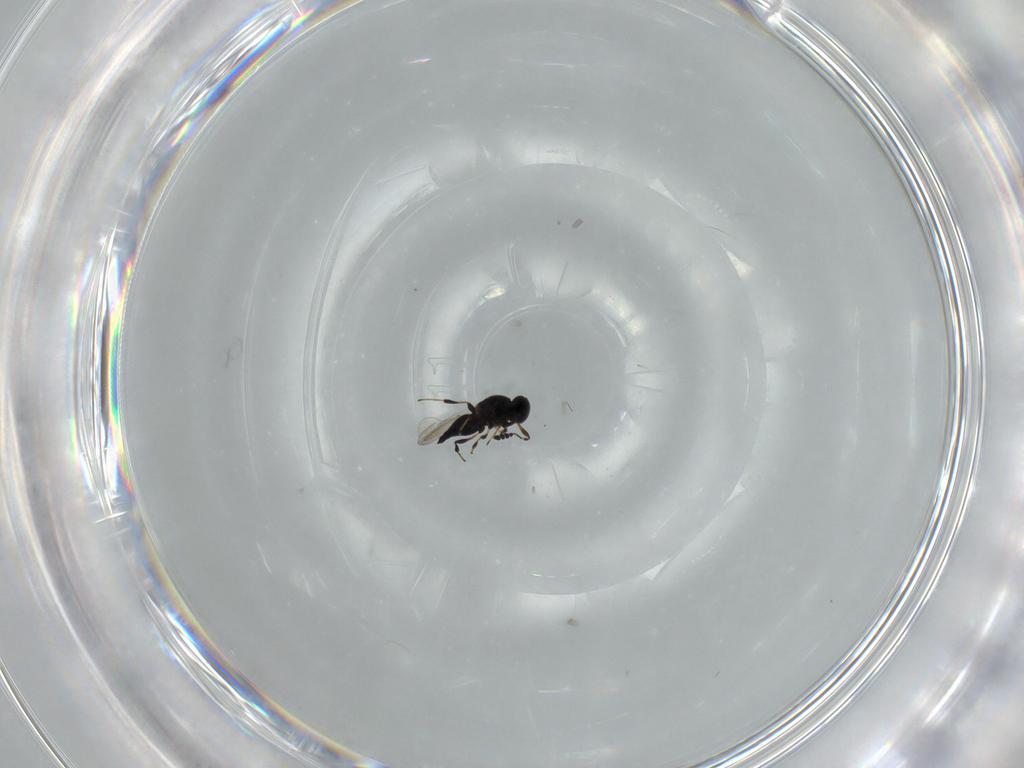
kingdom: Animalia
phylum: Arthropoda
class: Insecta
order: Hymenoptera
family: Platygastridae
